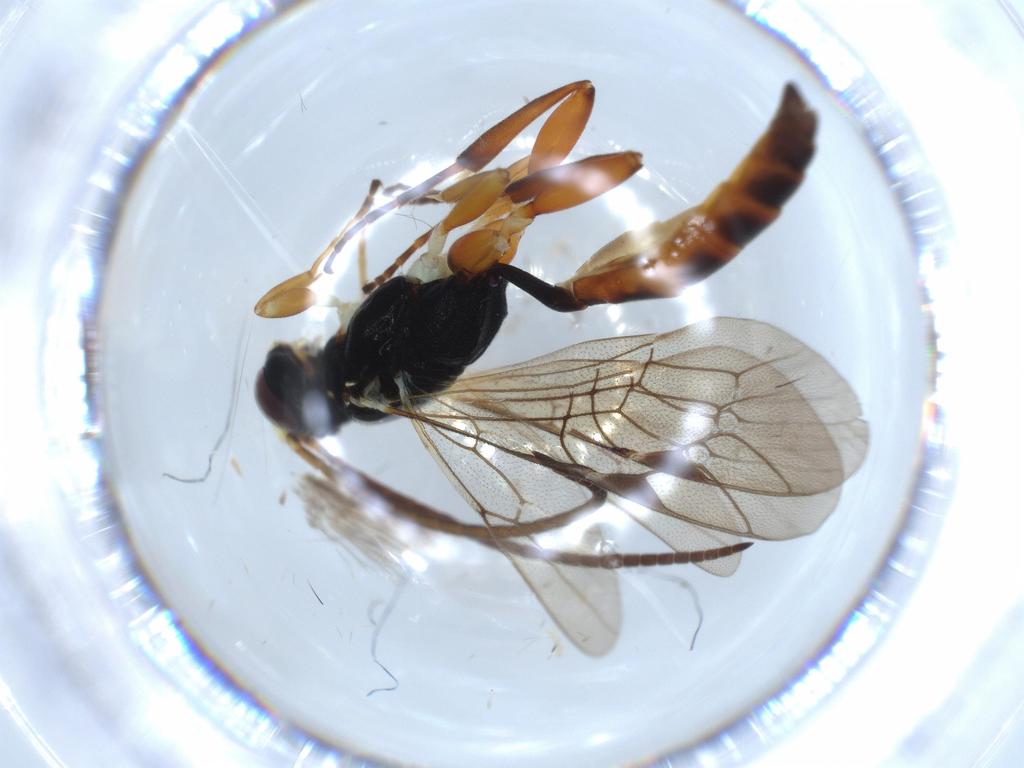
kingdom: Animalia
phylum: Arthropoda
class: Insecta
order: Hymenoptera
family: Ichneumonidae
